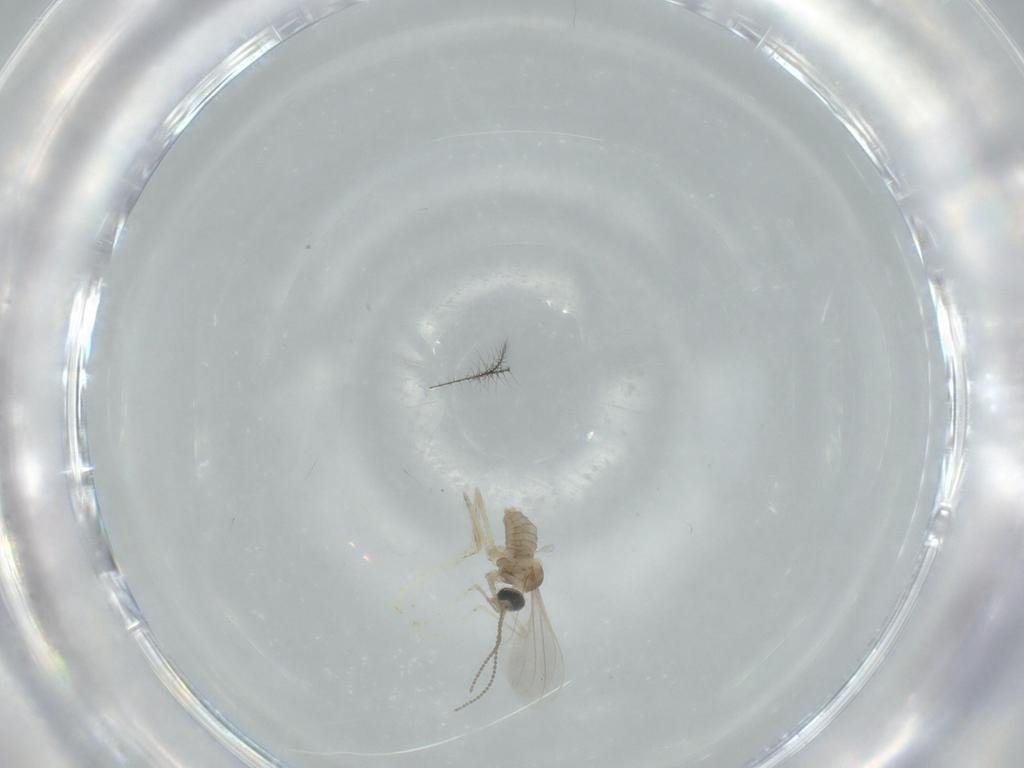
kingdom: Animalia
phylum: Arthropoda
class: Insecta
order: Diptera
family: Cecidomyiidae
